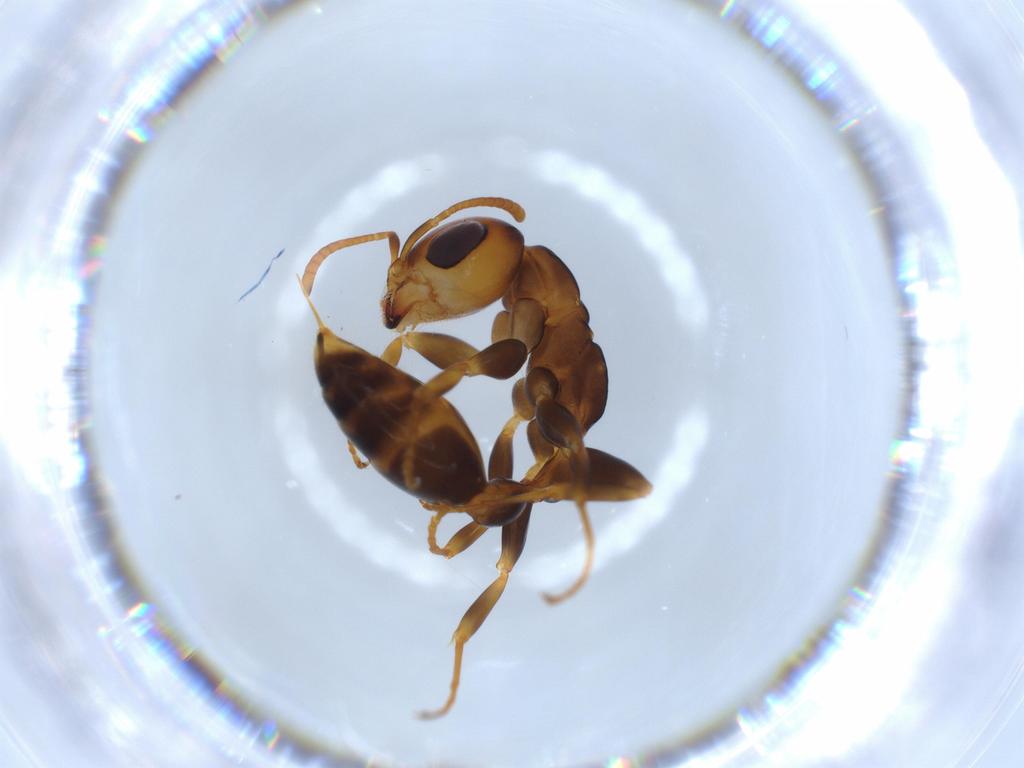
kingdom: Animalia
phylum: Arthropoda
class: Insecta
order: Hymenoptera
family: Formicidae
